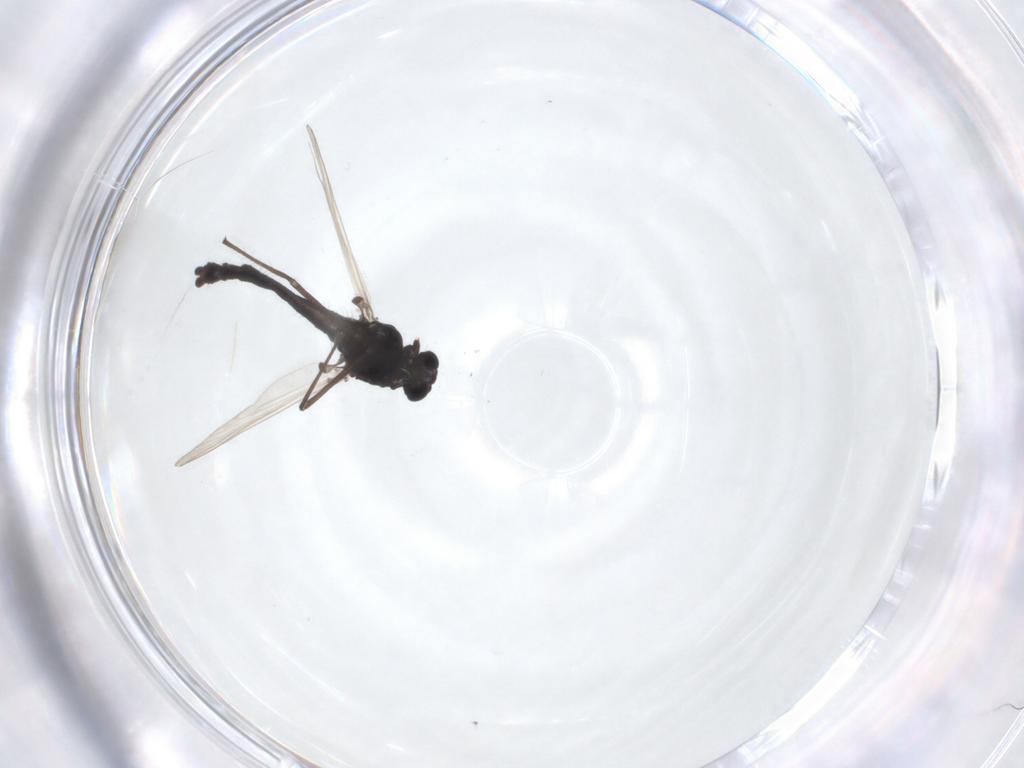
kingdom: Animalia
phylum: Arthropoda
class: Insecta
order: Diptera
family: Chironomidae
